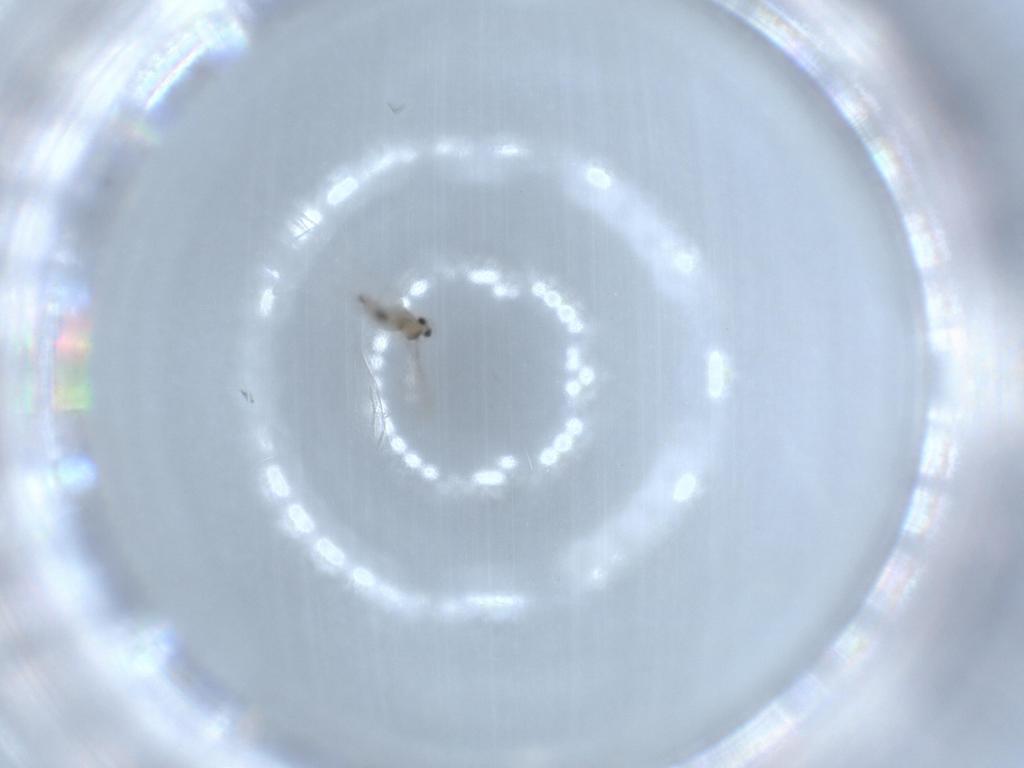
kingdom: Animalia
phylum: Arthropoda
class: Insecta
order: Diptera
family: Cecidomyiidae
